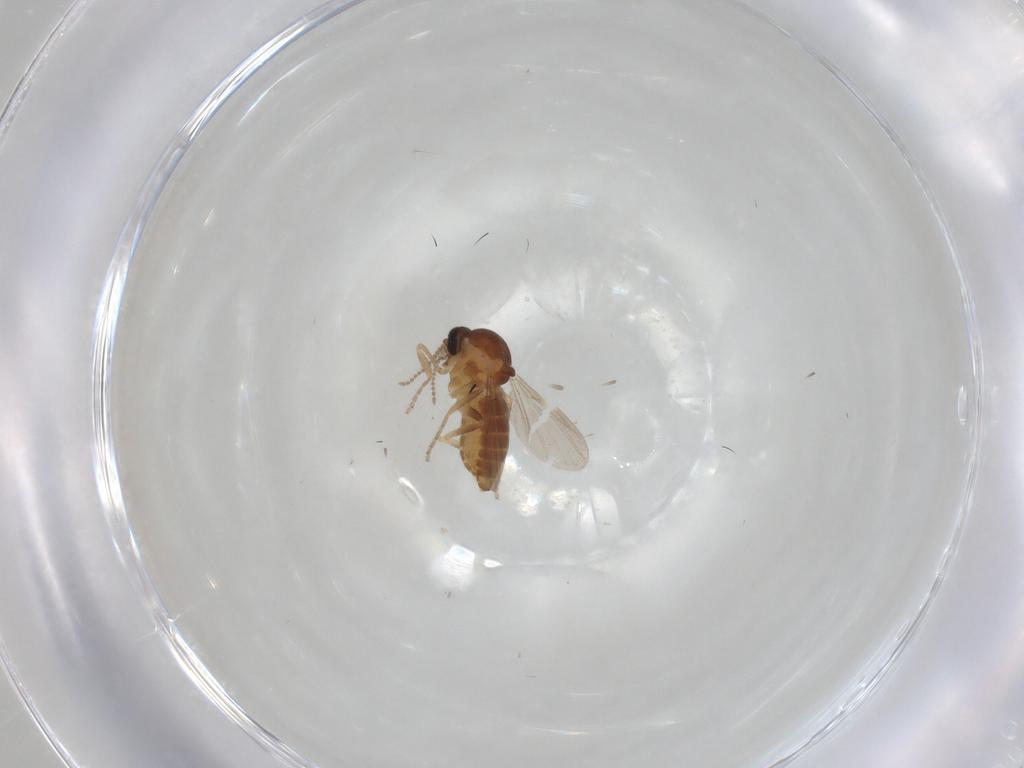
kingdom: Animalia
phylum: Arthropoda
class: Insecta
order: Diptera
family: Ceratopogonidae
